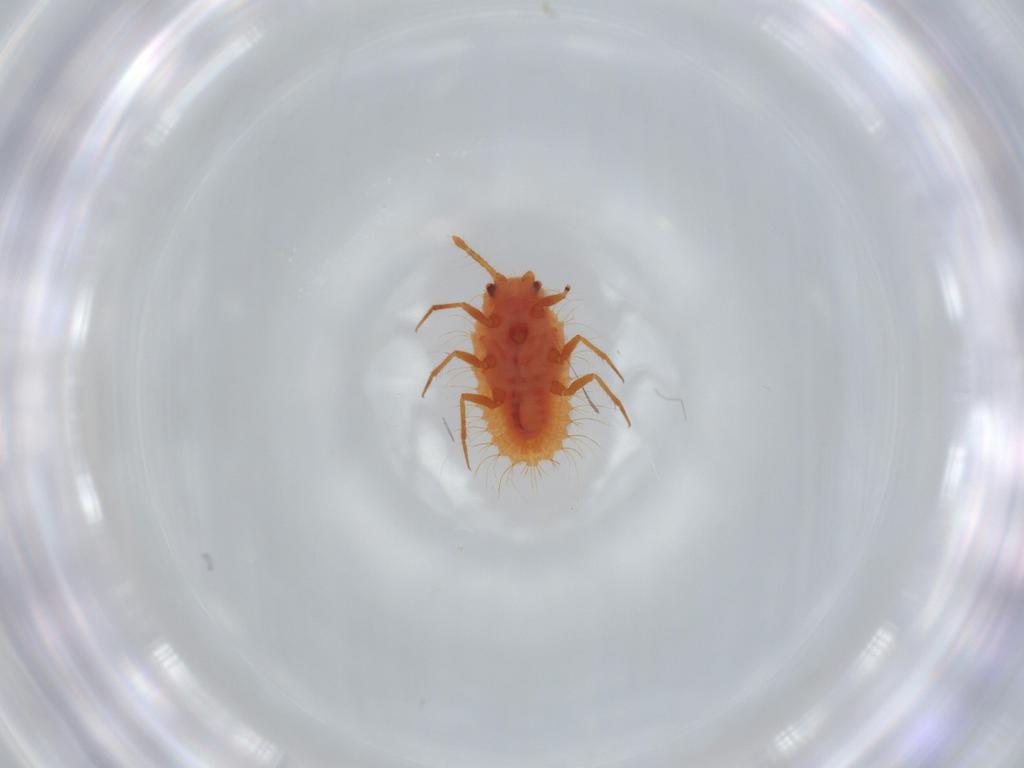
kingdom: Animalia
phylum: Arthropoda
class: Insecta
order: Hemiptera
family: Cicadellidae
